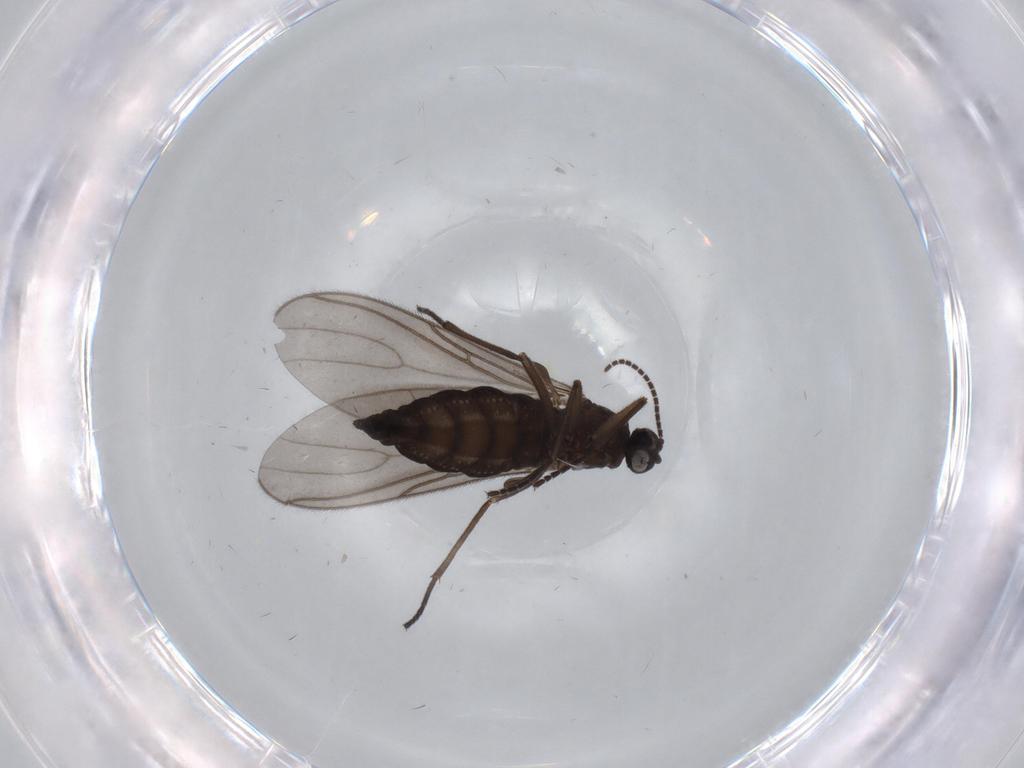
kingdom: Animalia
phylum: Arthropoda
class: Insecta
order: Diptera
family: Sciaridae
